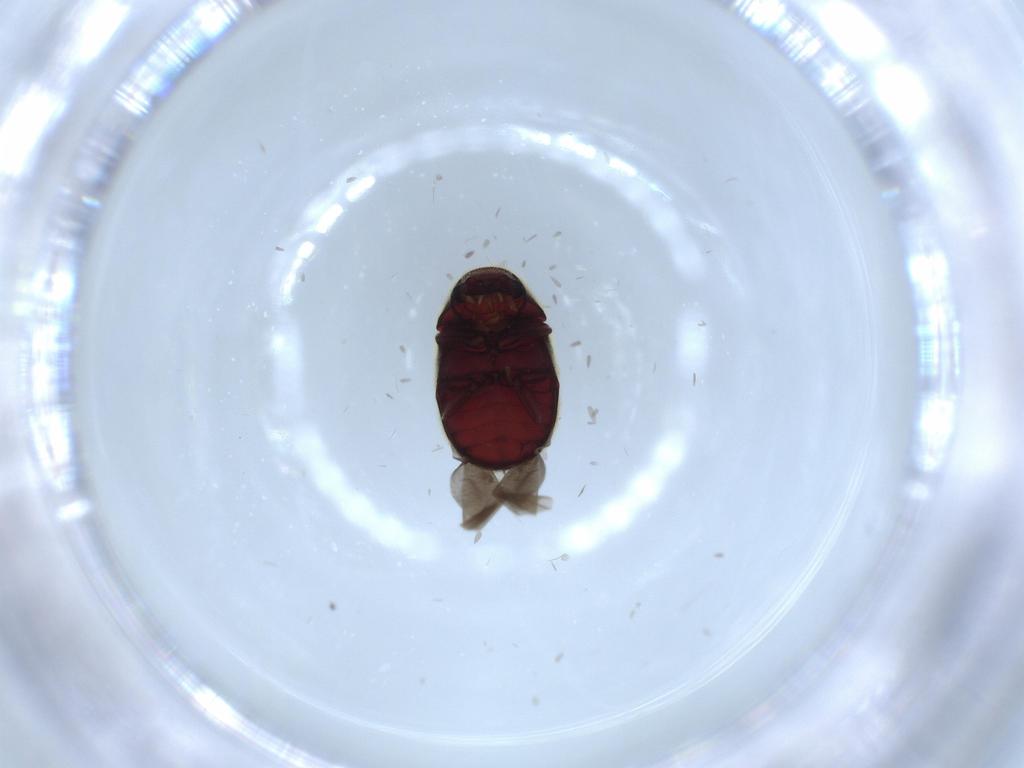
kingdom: Animalia
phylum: Arthropoda
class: Insecta
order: Coleoptera
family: Ptinidae
